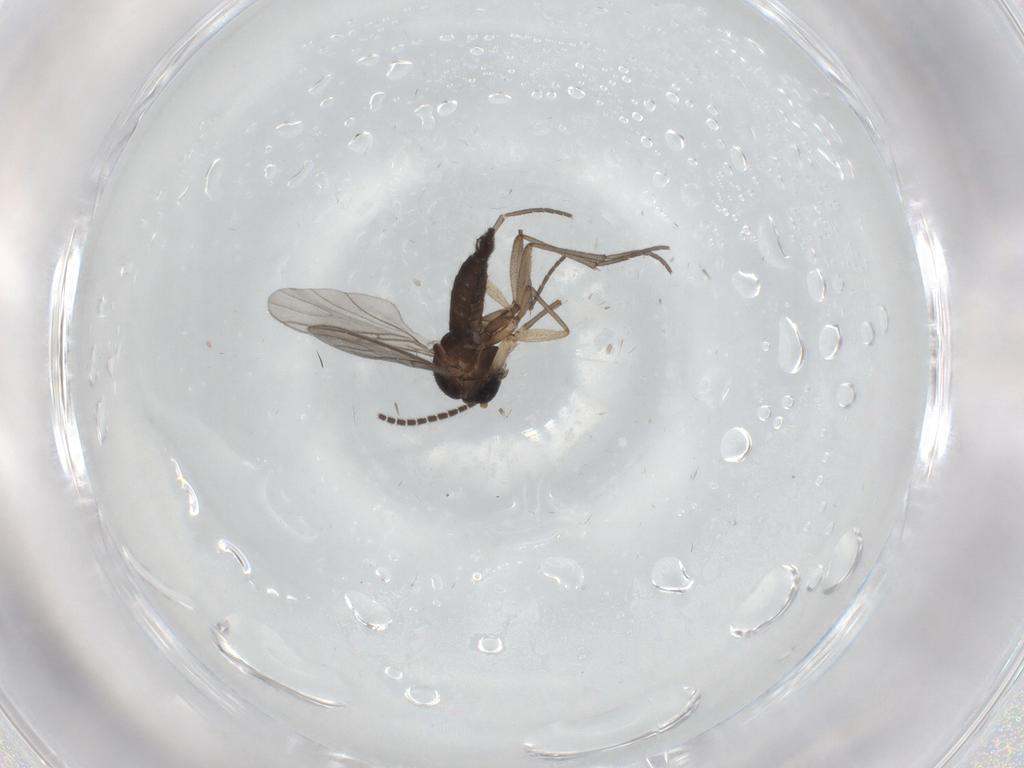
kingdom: Animalia
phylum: Arthropoda
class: Insecta
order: Diptera
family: Sciaridae
